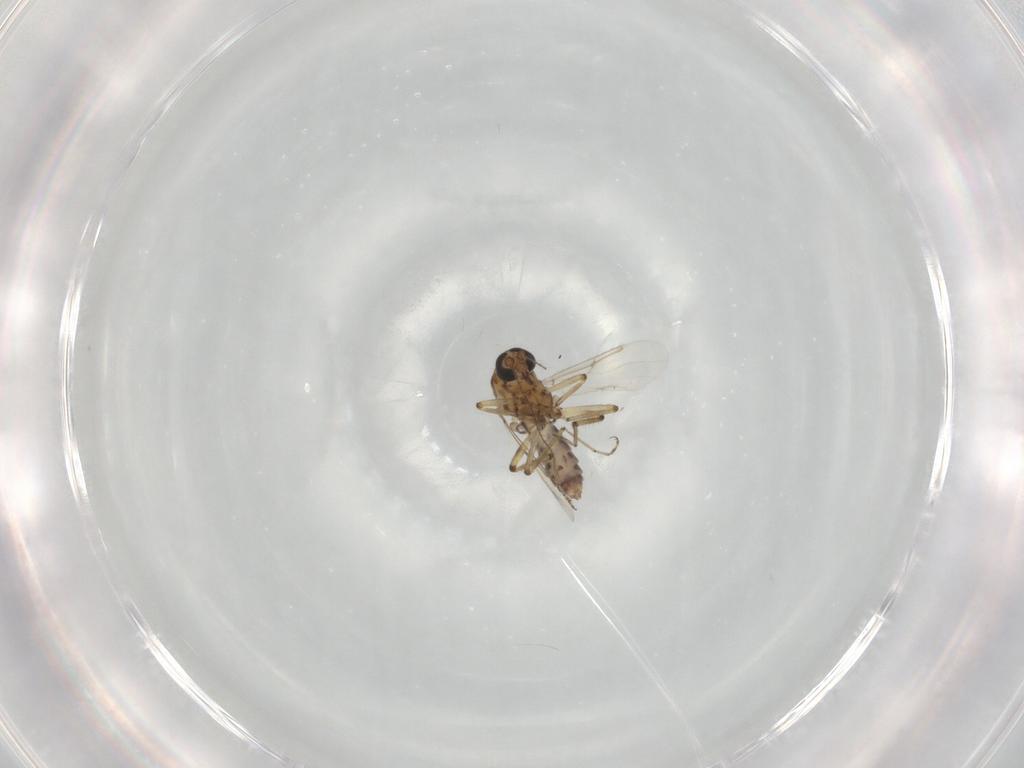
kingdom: Animalia
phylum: Arthropoda
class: Insecta
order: Diptera
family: Ceratopogonidae
